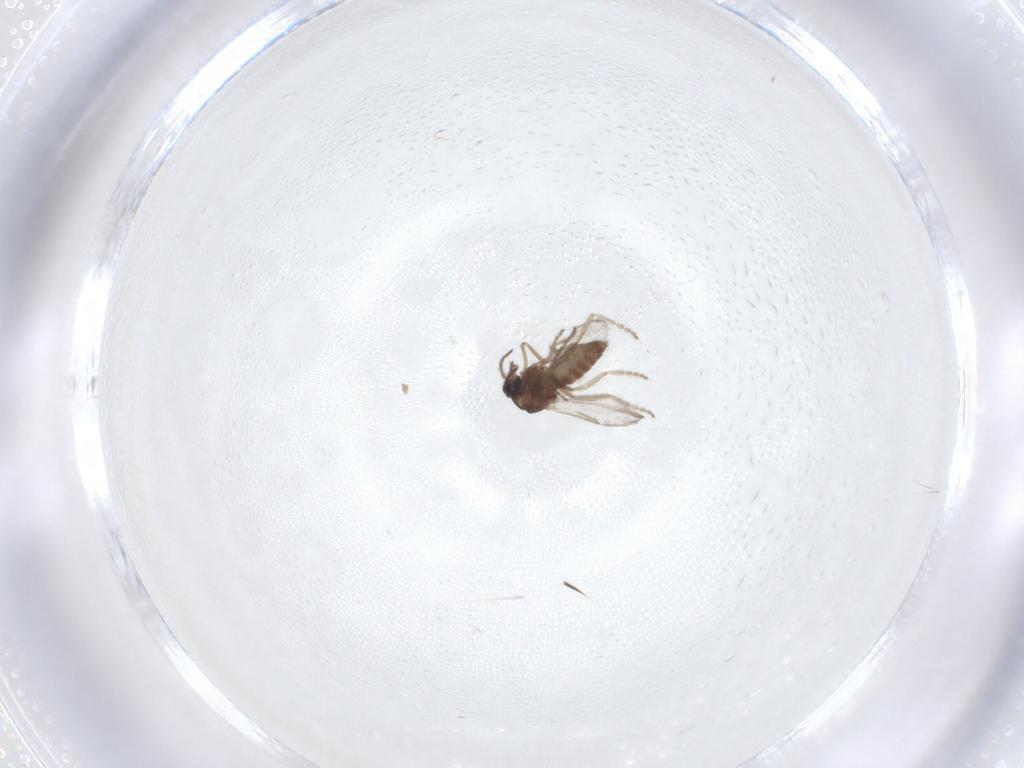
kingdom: Animalia
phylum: Arthropoda
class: Insecta
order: Diptera
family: Ceratopogonidae
